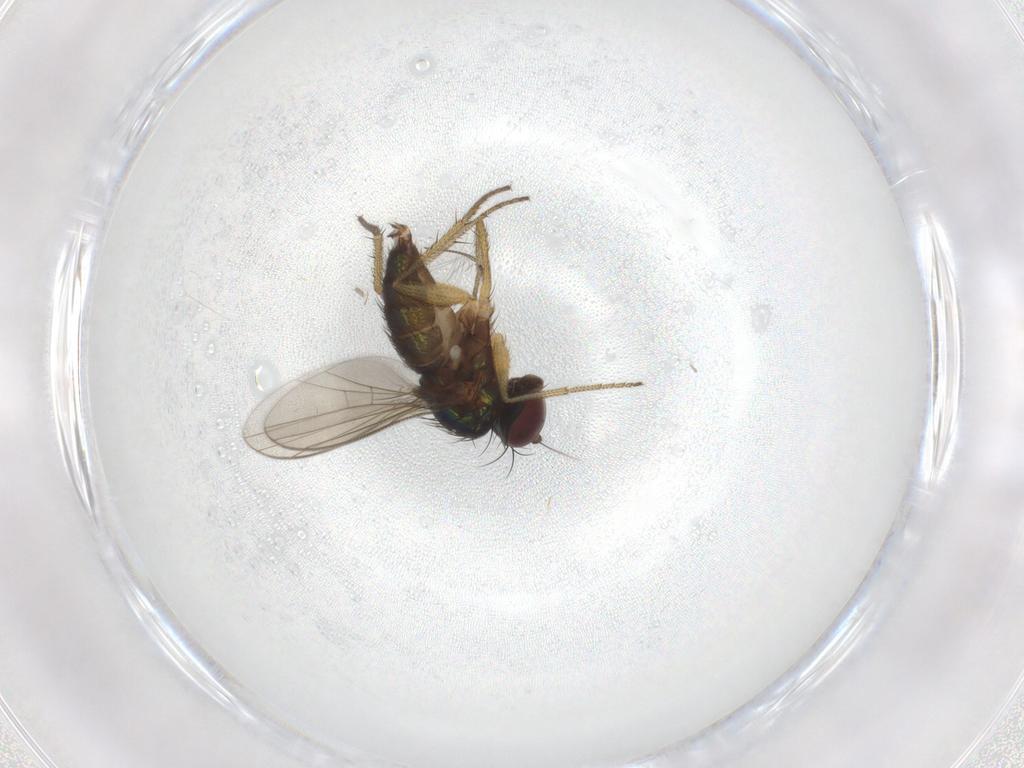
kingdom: Animalia
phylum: Arthropoda
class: Insecta
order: Diptera
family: Dolichopodidae
